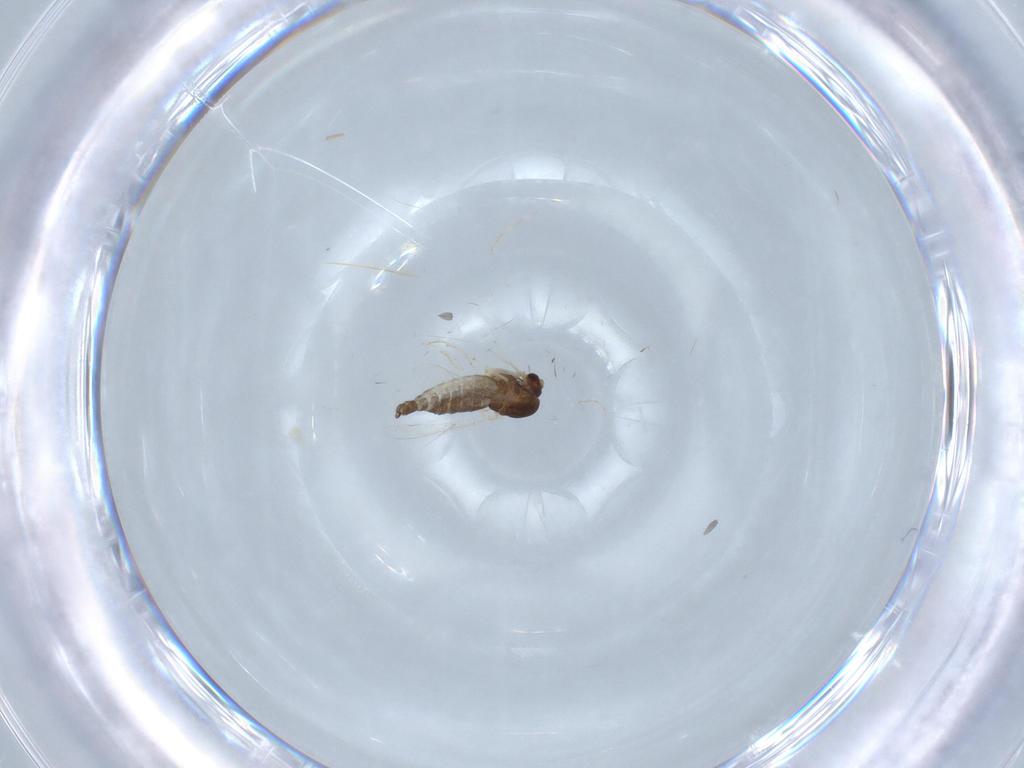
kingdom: Animalia
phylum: Arthropoda
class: Insecta
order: Diptera
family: Chironomidae
